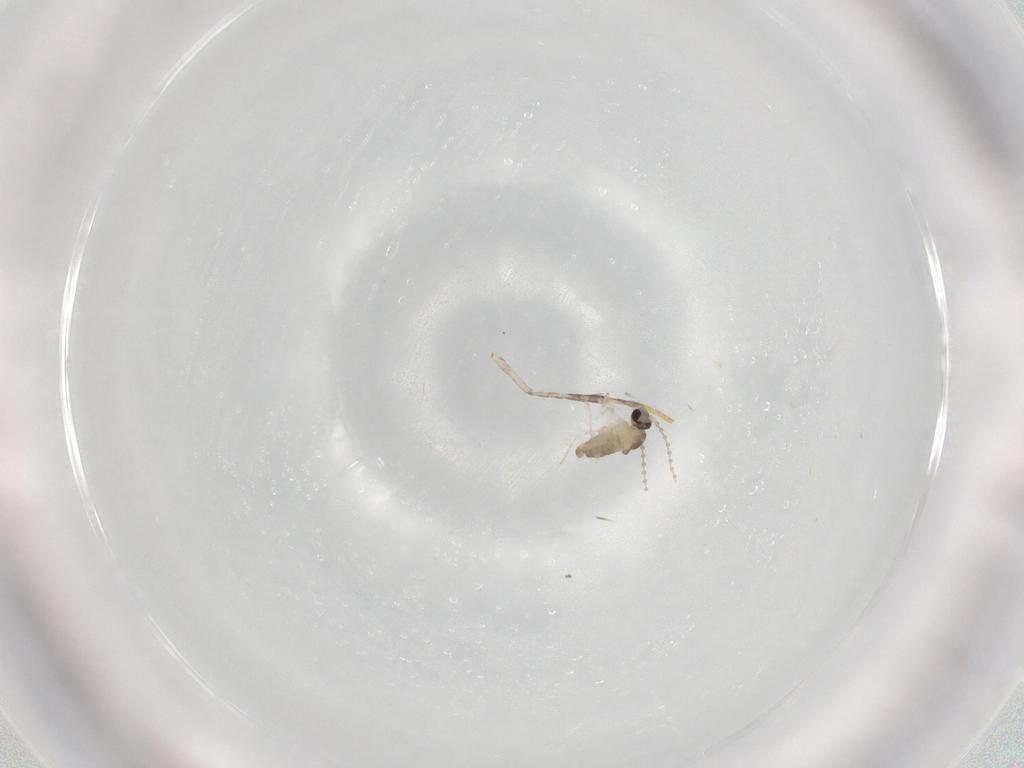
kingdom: Animalia
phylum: Arthropoda
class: Insecta
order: Diptera
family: Cecidomyiidae
